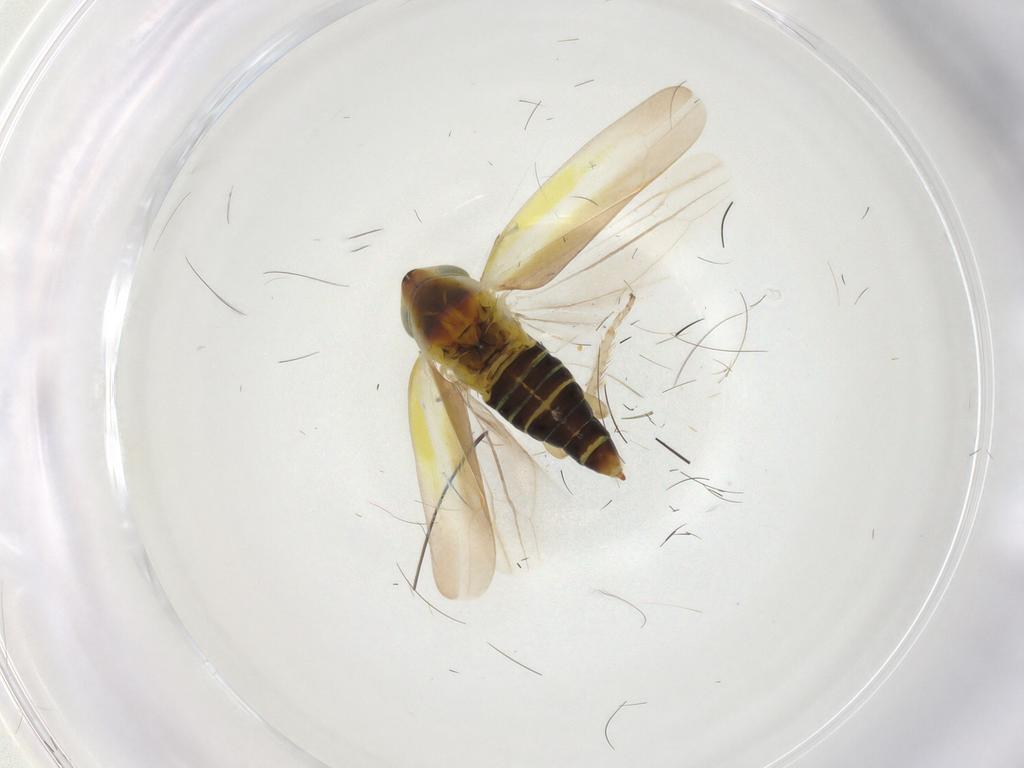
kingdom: Animalia
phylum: Arthropoda
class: Insecta
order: Hemiptera
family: Cicadellidae
